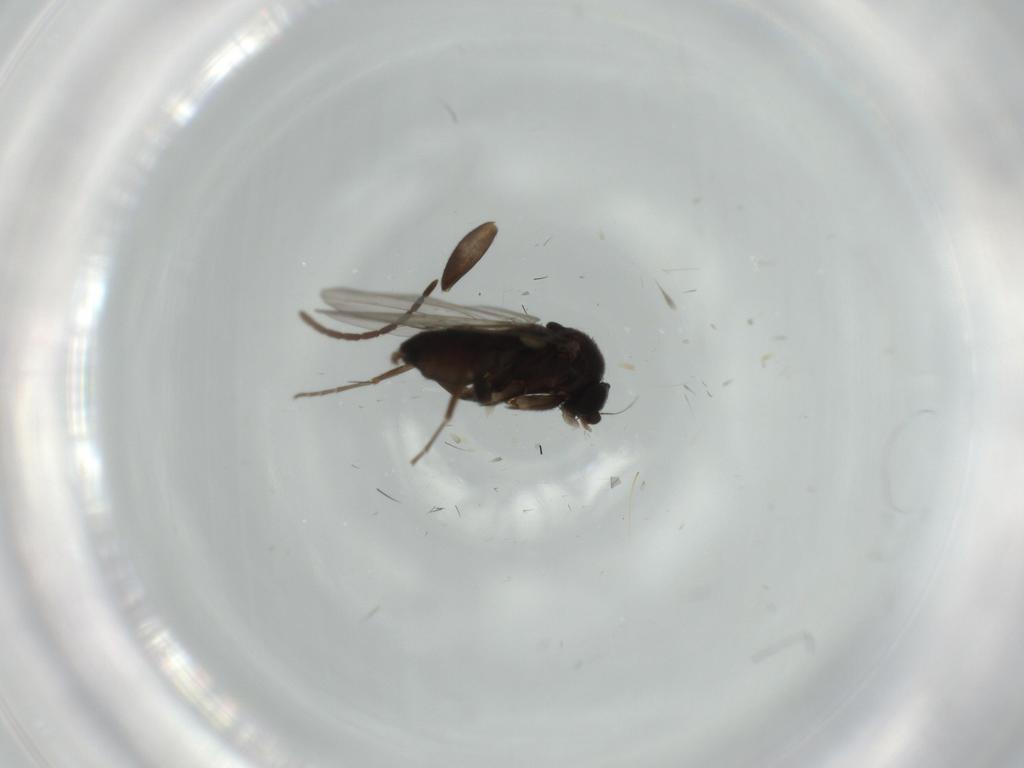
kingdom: Animalia
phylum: Arthropoda
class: Insecta
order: Diptera
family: Phoridae
